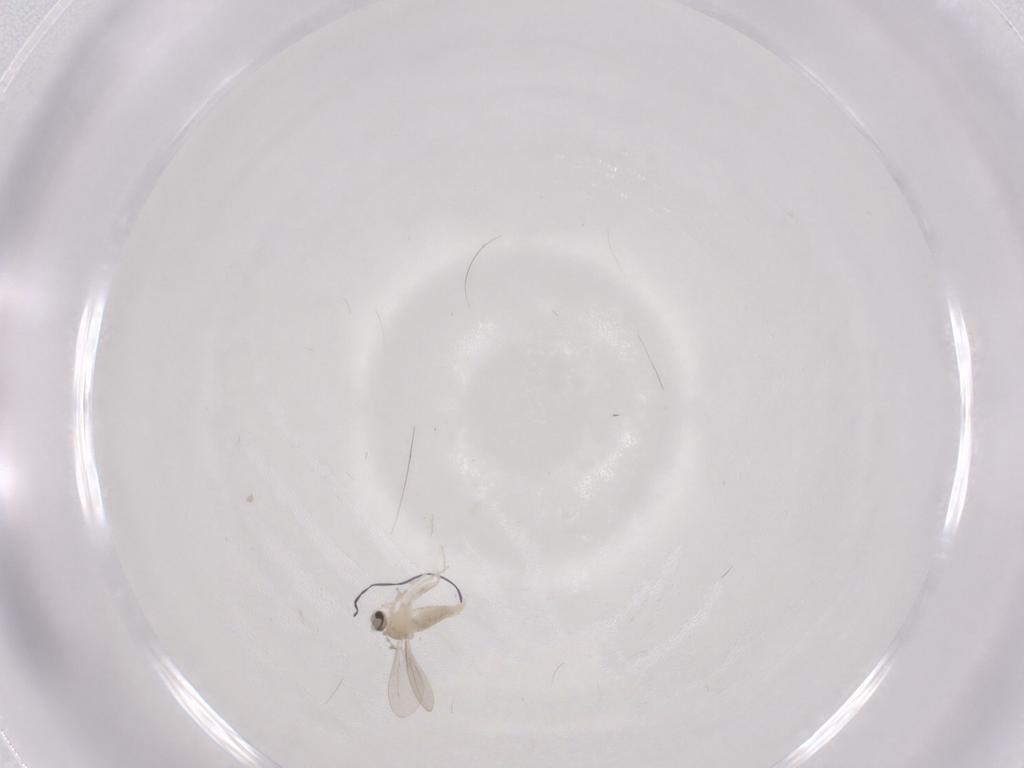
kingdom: Animalia
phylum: Arthropoda
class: Insecta
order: Diptera
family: Cecidomyiidae
